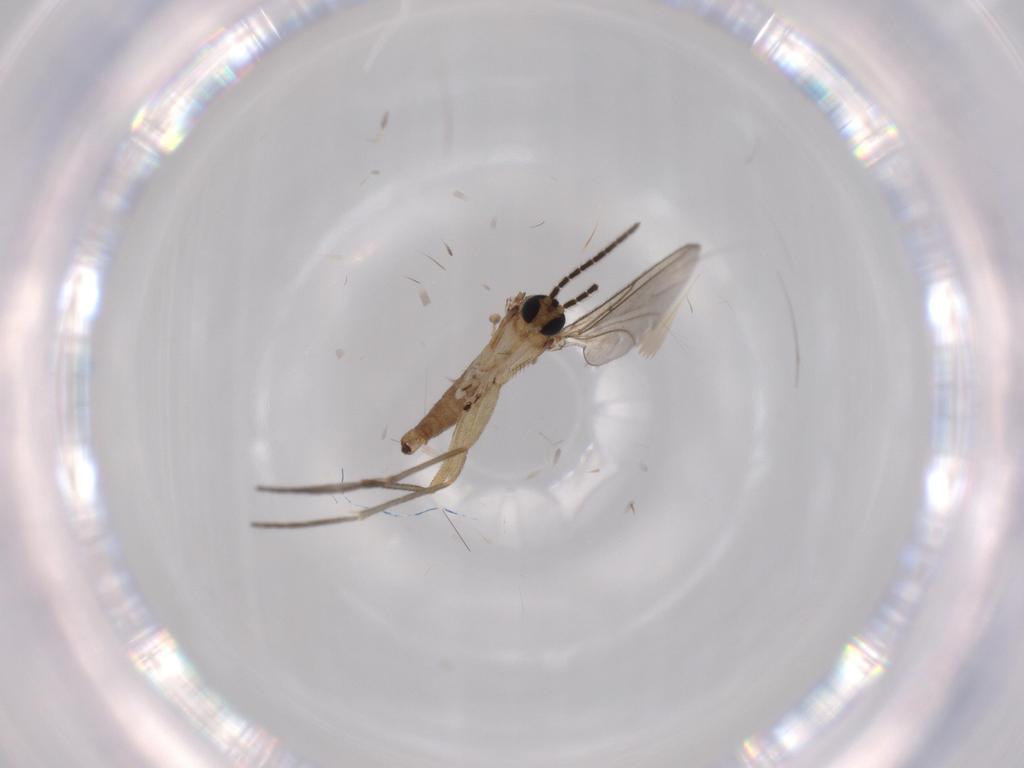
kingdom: Animalia
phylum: Arthropoda
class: Insecta
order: Diptera
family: Sciaridae
